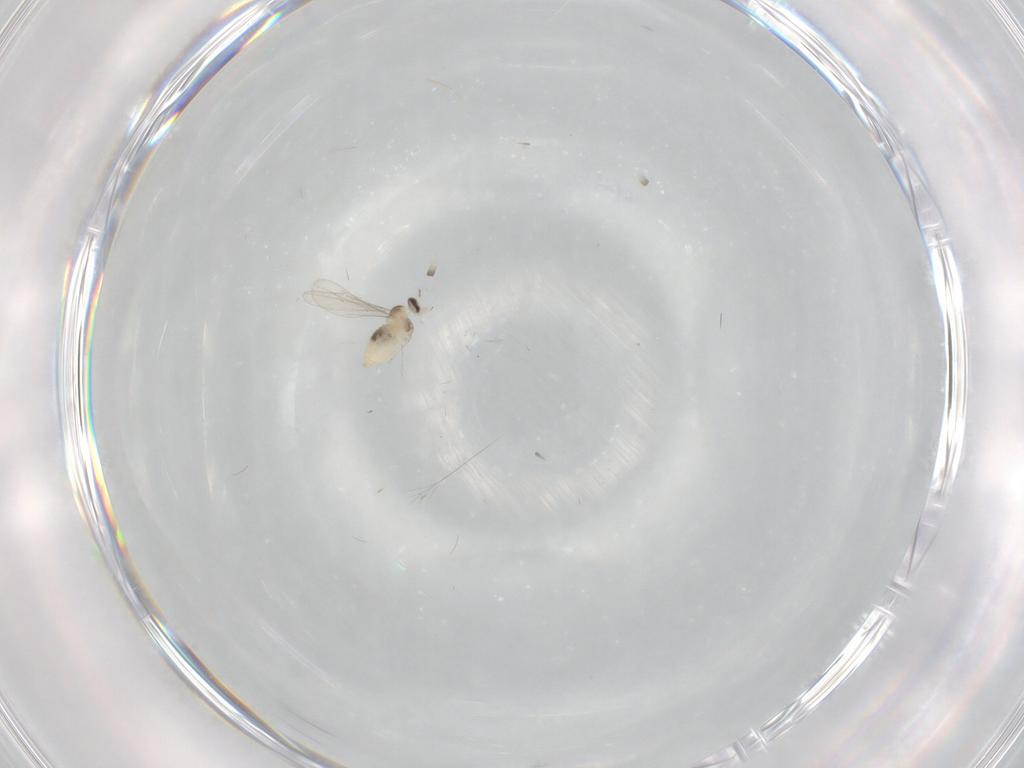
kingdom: Animalia
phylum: Arthropoda
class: Insecta
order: Diptera
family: Cecidomyiidae
